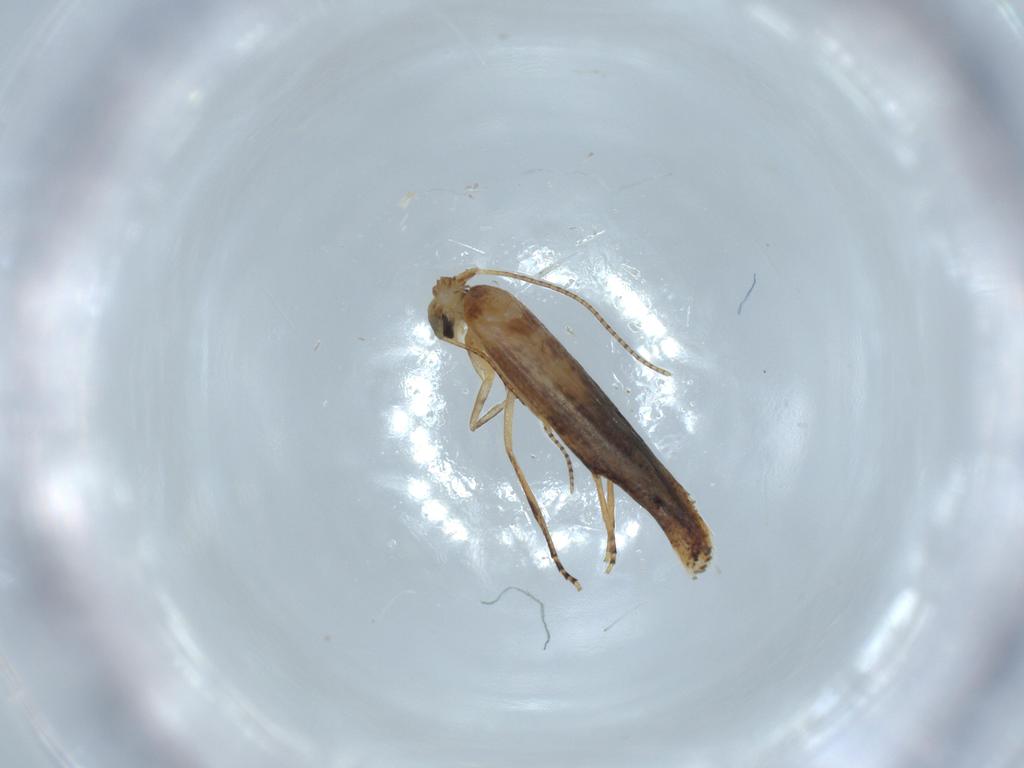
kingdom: Animalia
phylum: Arthropoda
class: Insecta
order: Lepidoptera
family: Bucculatricidae
